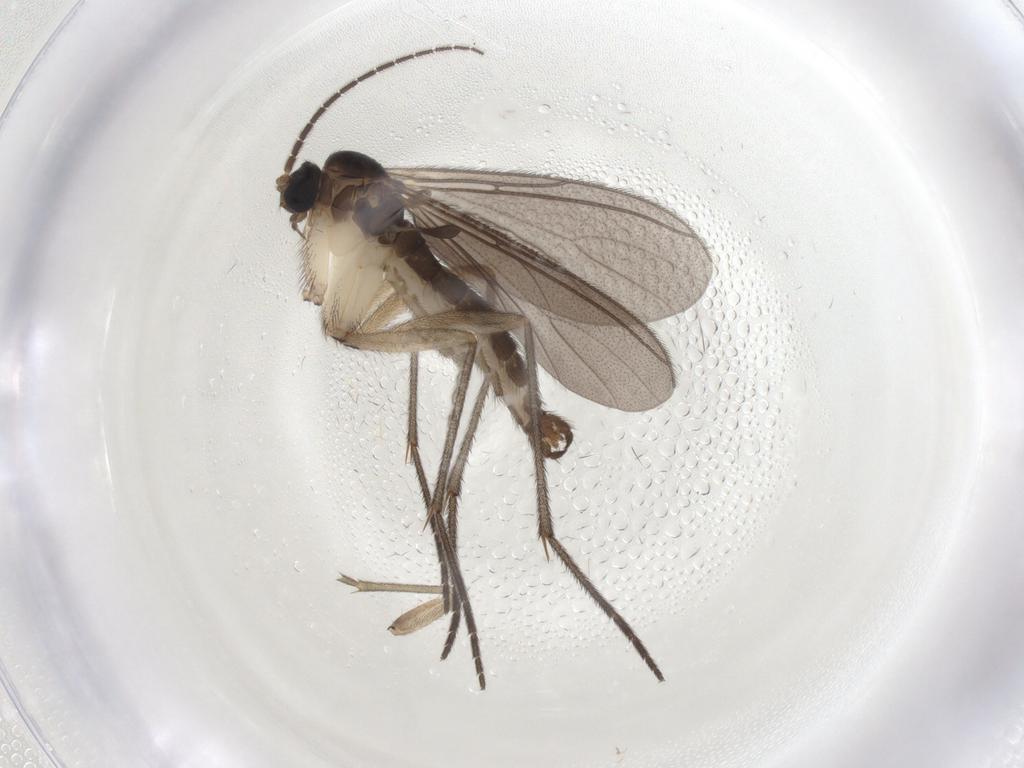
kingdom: Animalia
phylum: Arthropoda
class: Insecta
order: Diptera
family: Sciaridae
